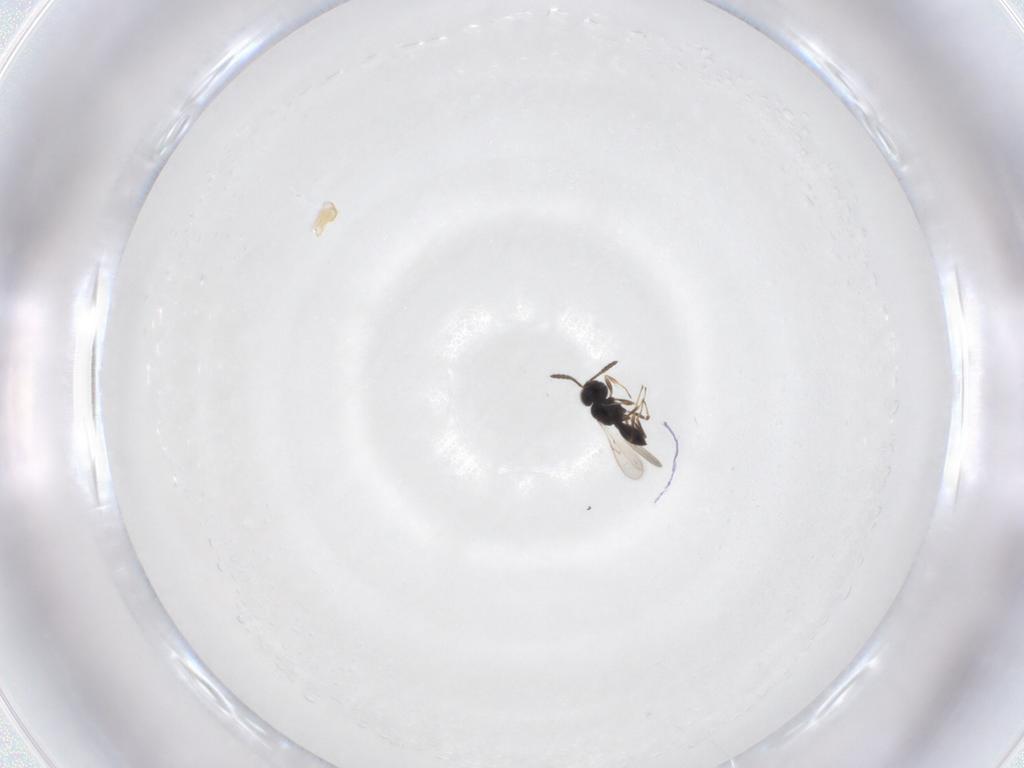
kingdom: Animalia
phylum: Arthropoda
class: Insecta
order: Hymenoptera
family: Scelionidae
